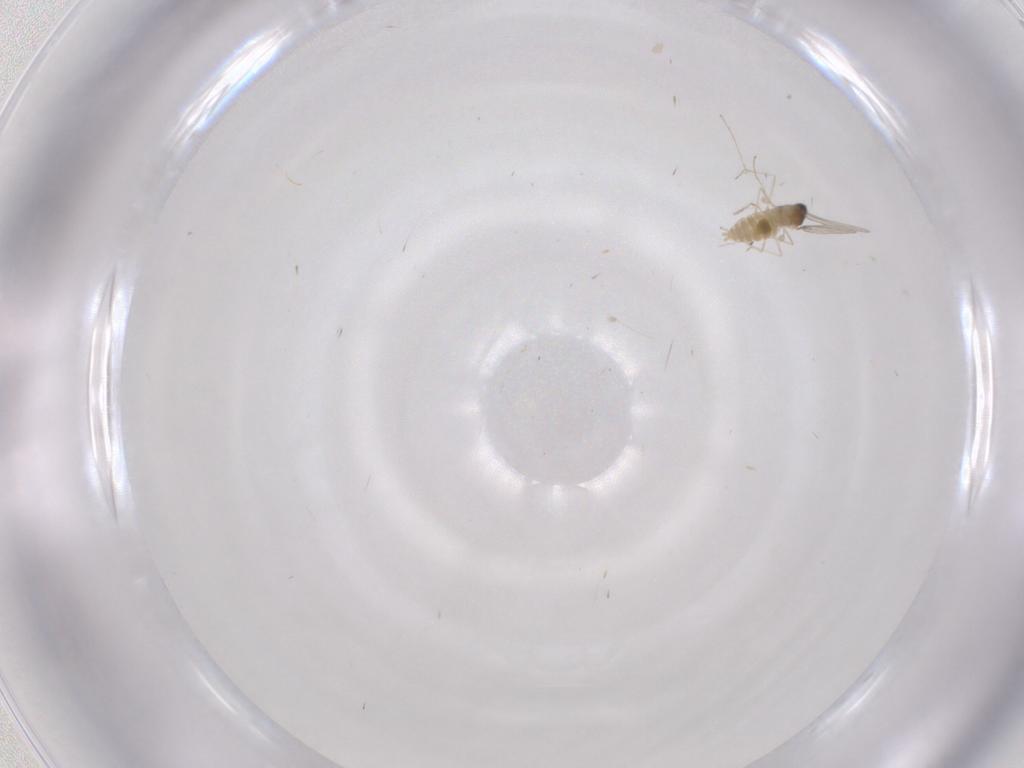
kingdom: Animalia
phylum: Arthropoda
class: Insecta
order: Diptera
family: Cecidomyiidae
